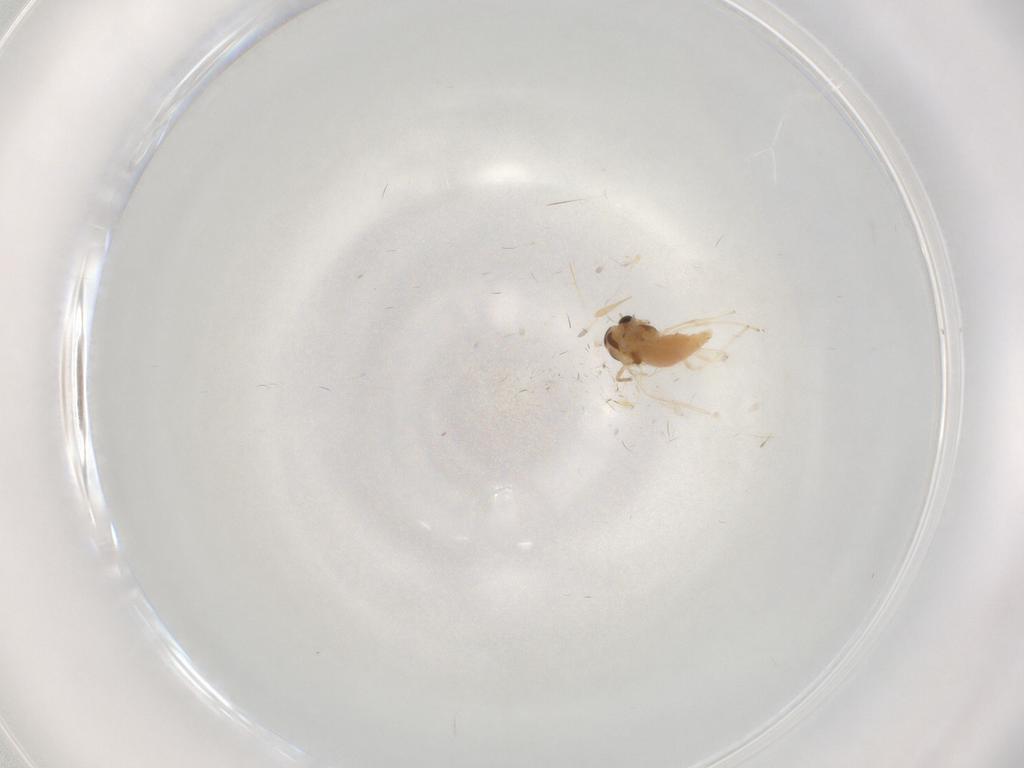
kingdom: Animalia
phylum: Arthropoda
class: Insecta
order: Diptera
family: Chironomidae
